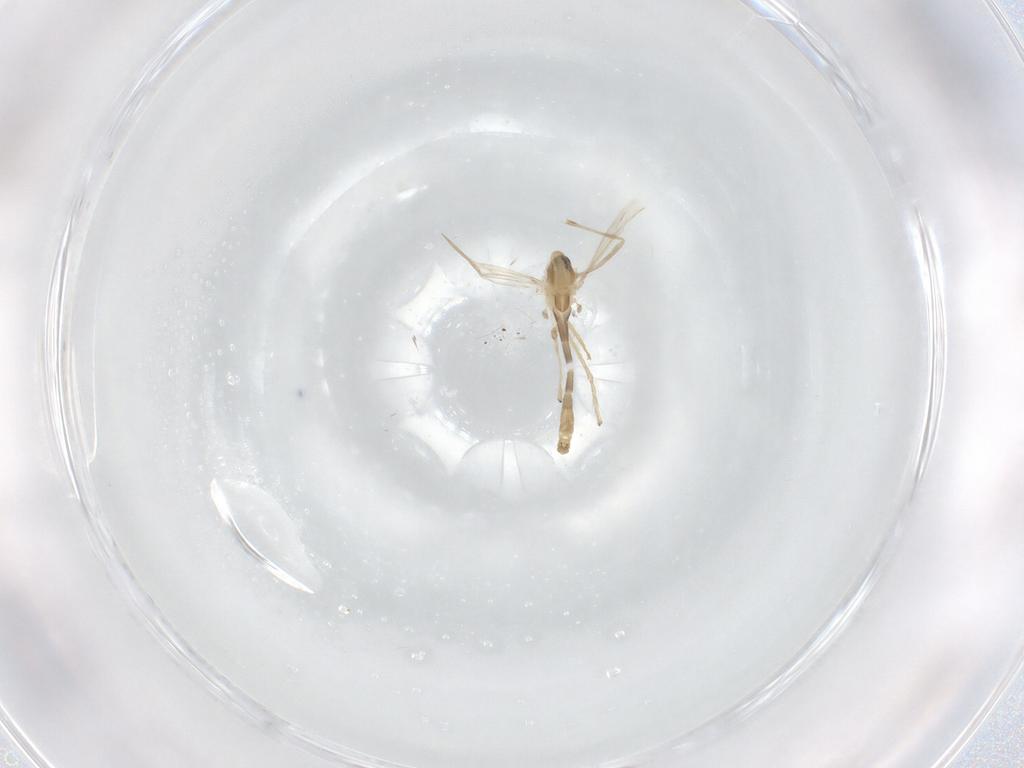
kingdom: Animalia
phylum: Arthropoda
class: Insecta
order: Diptera
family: Chironomidae
